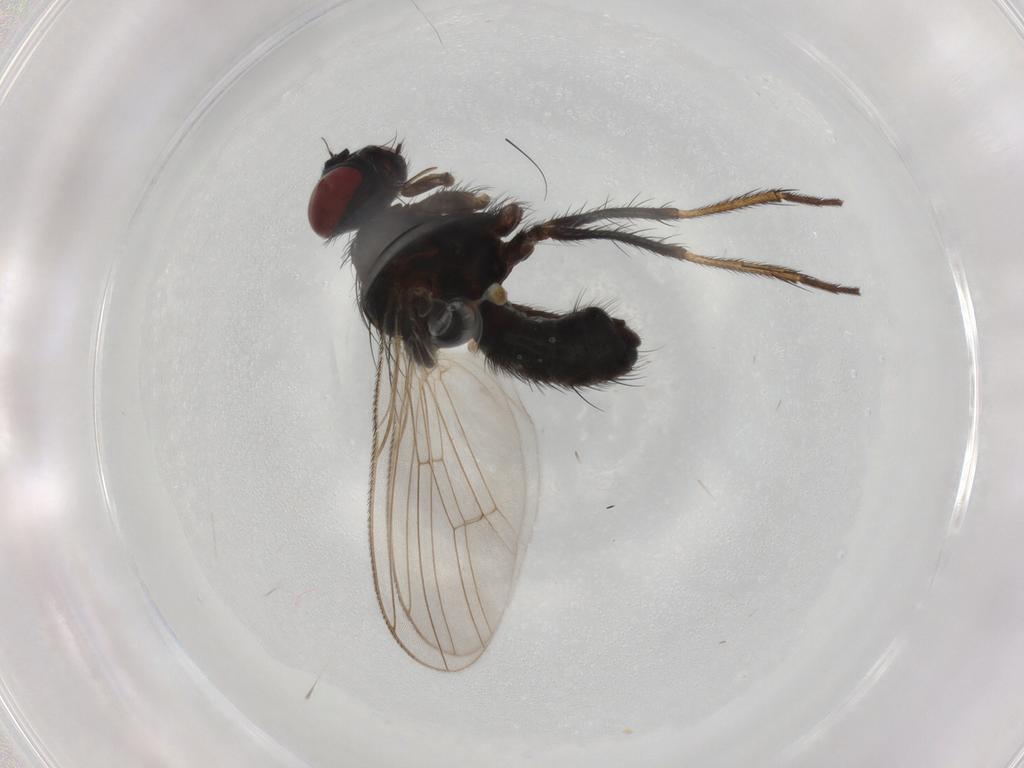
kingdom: Animalia
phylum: Arthropoda
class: Insecta
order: Diptera
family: Muscidae
